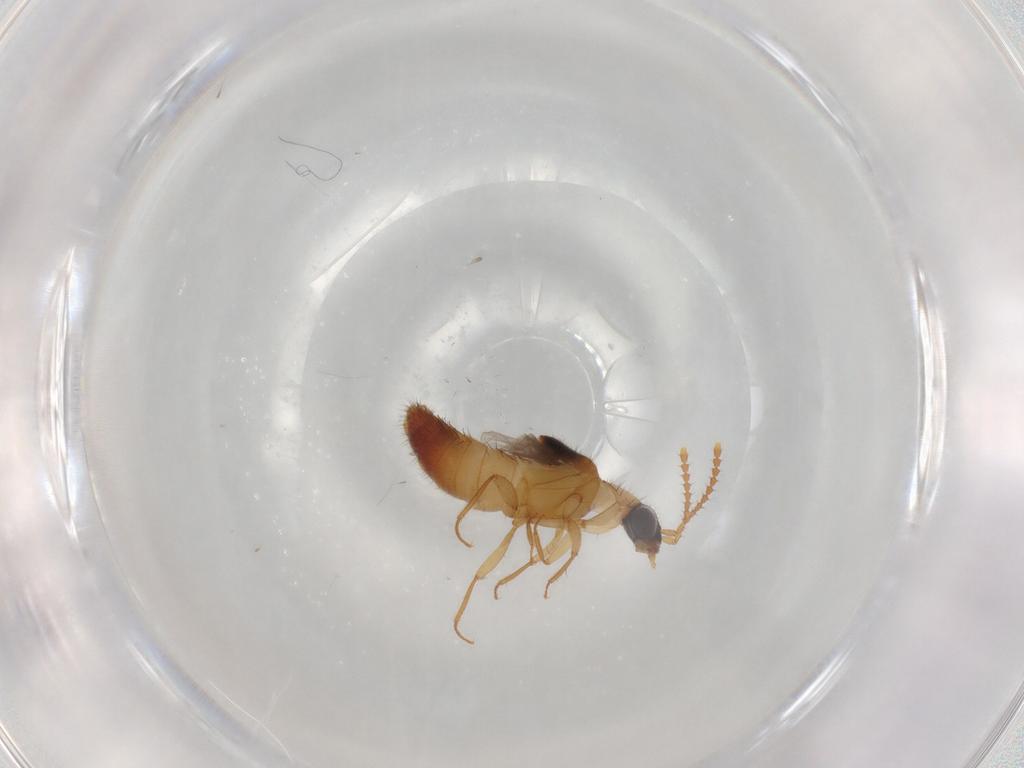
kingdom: Animalia
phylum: Arthropoda
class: Insecta
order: Coleoptera
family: Staphylinidae
